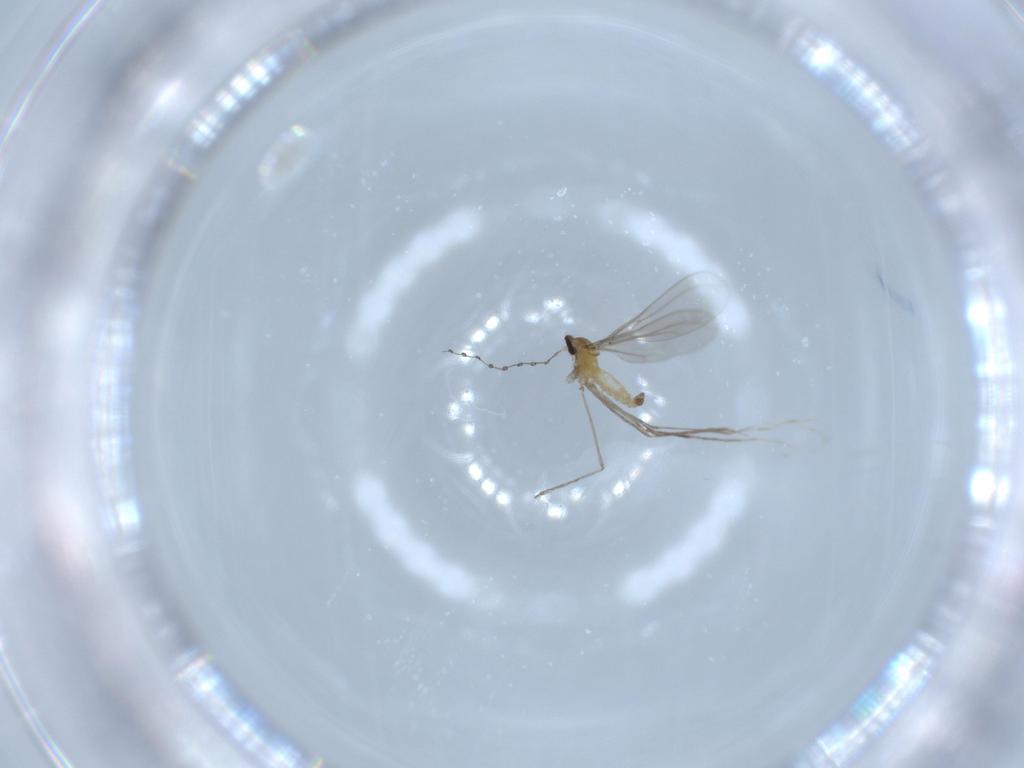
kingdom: Animalia
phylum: Arthropoda
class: Insecta
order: Diptera
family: Cecidomyiidae
